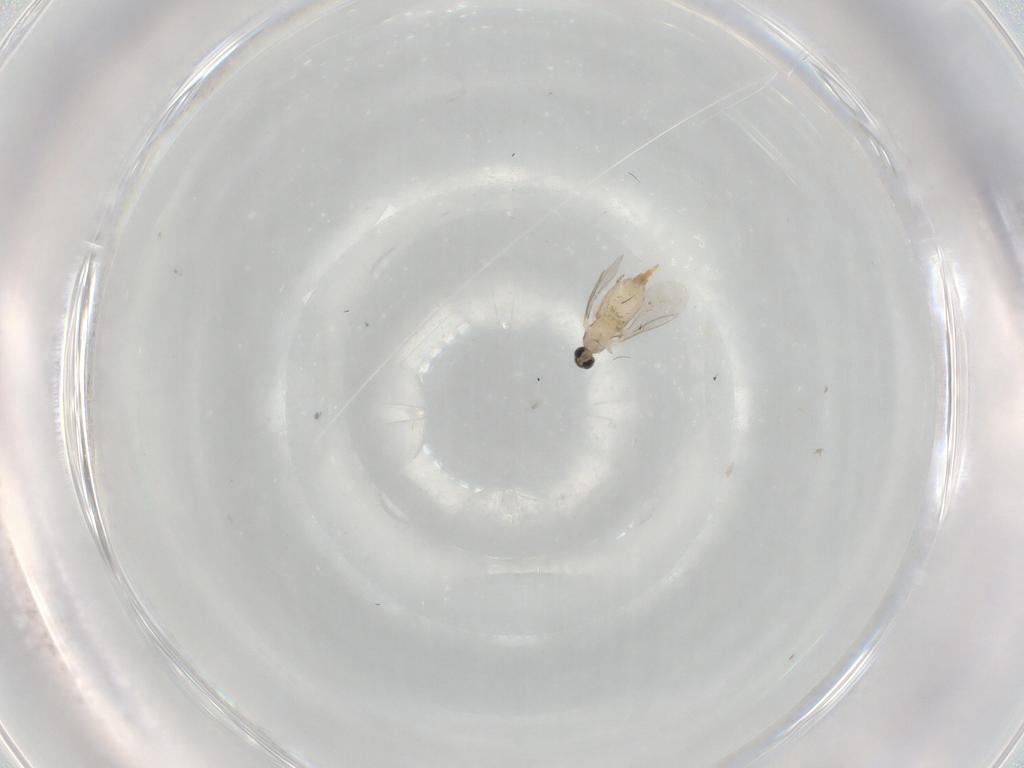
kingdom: Animalia
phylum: Arthropoda
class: Insecta
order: Diptera
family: Cecidomyiidae
